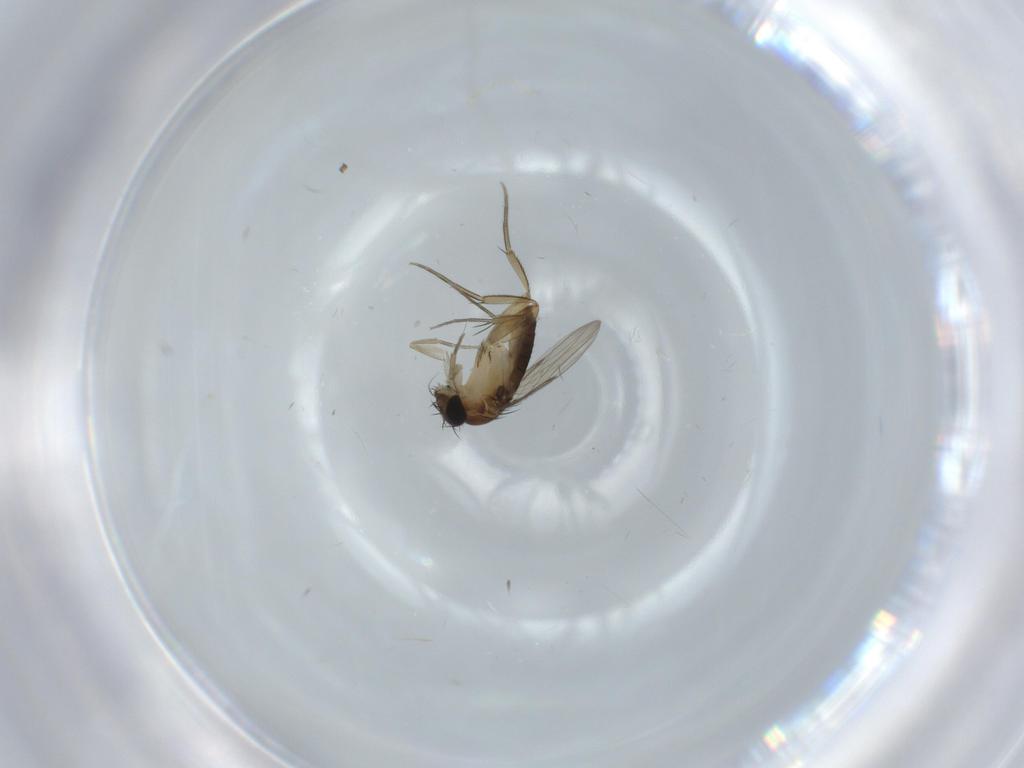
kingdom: Animalia
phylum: Arthropoda
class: Insecta
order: Diptera
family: Phoridae
